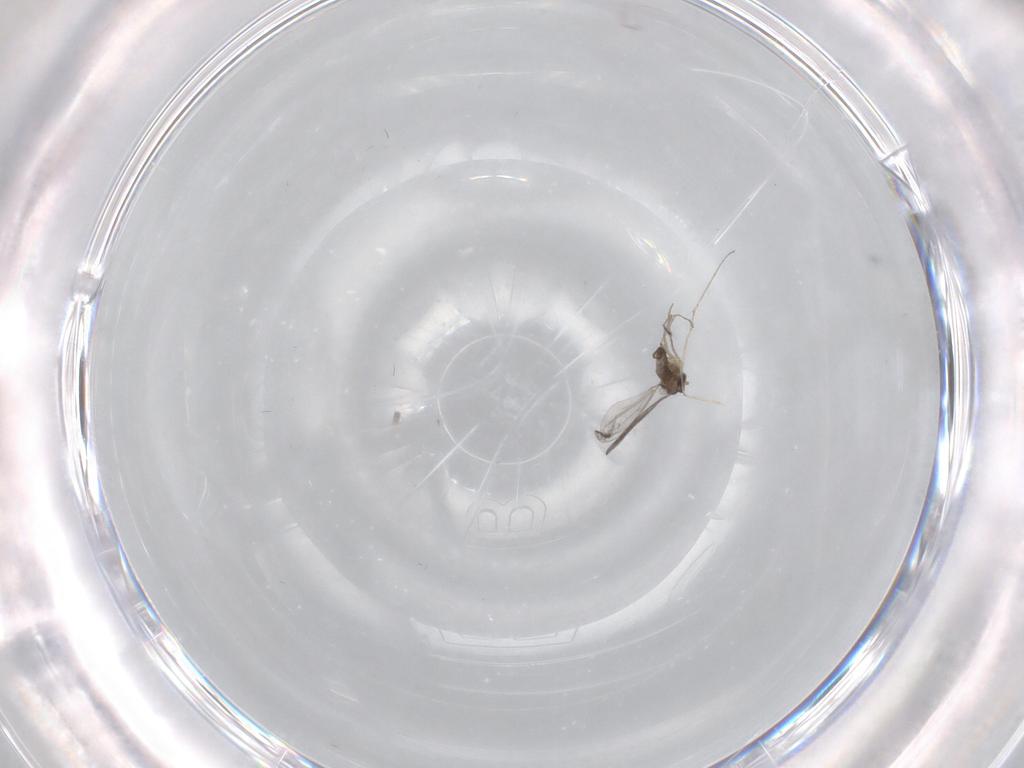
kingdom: Animalia
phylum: Arthropoda
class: Insecta
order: Diptera
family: Cecidomyiidae
